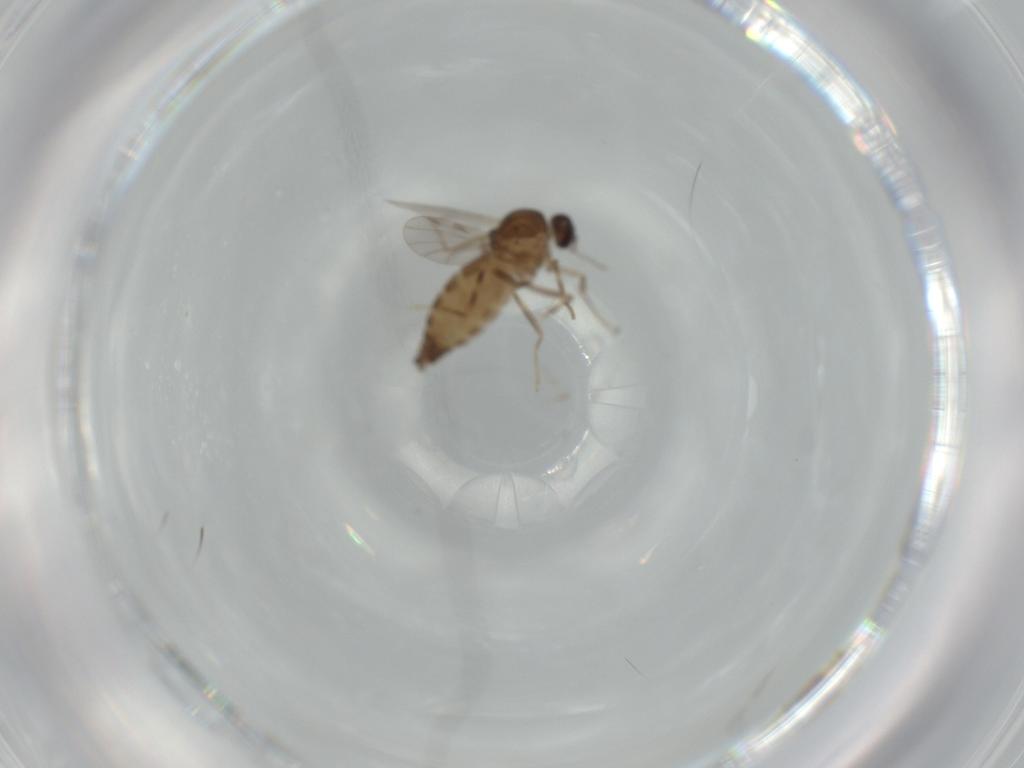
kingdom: Animalia
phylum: Arthropoda
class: Insecta
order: Diptera
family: Ceratopogonidae
